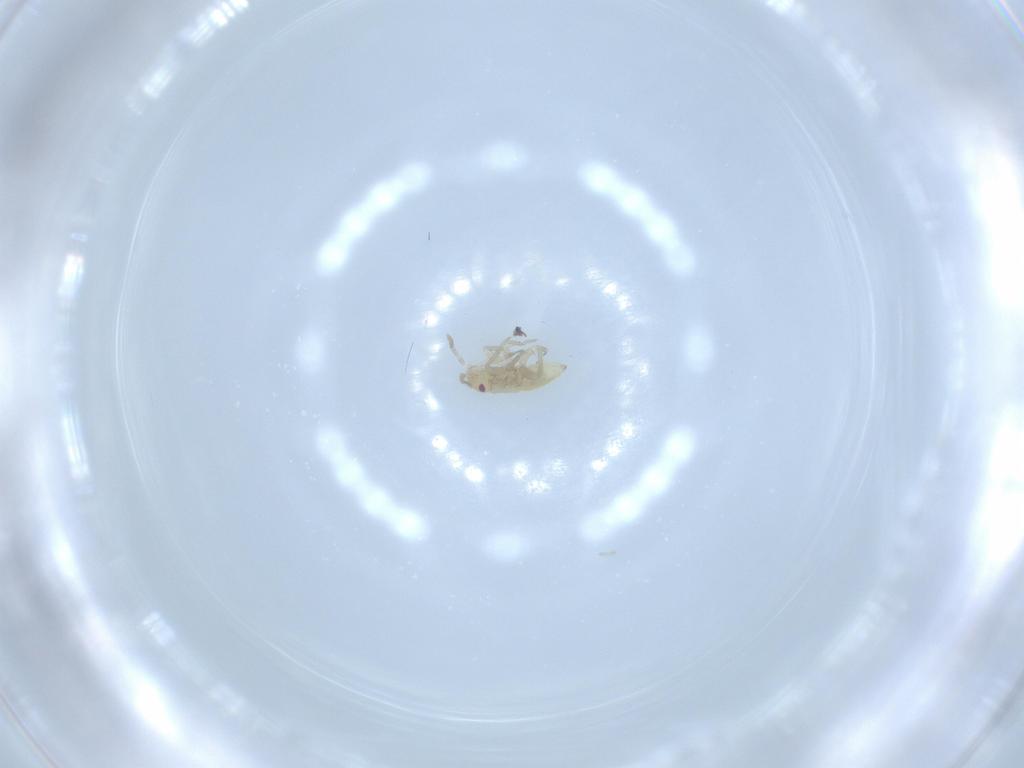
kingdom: Animalia
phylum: Arthropoda
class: Insecta
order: Hemiptera
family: Miridae
